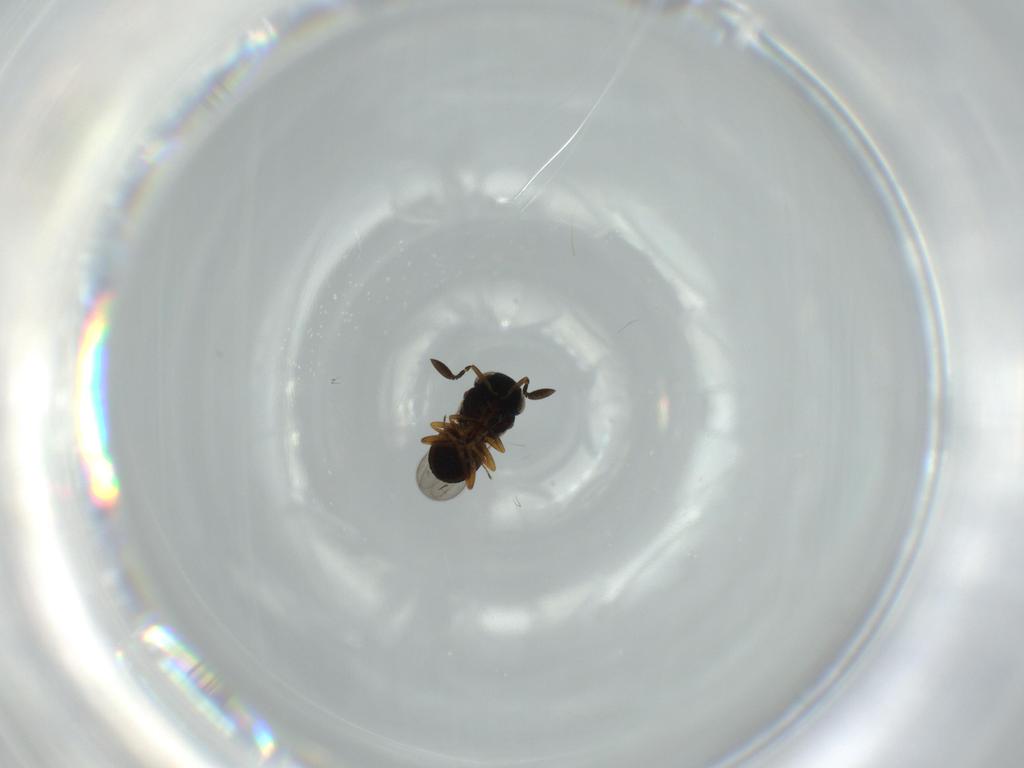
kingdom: Animalia
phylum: Arthropoda
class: Insecta
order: Hymenoptera
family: Scelionidae
